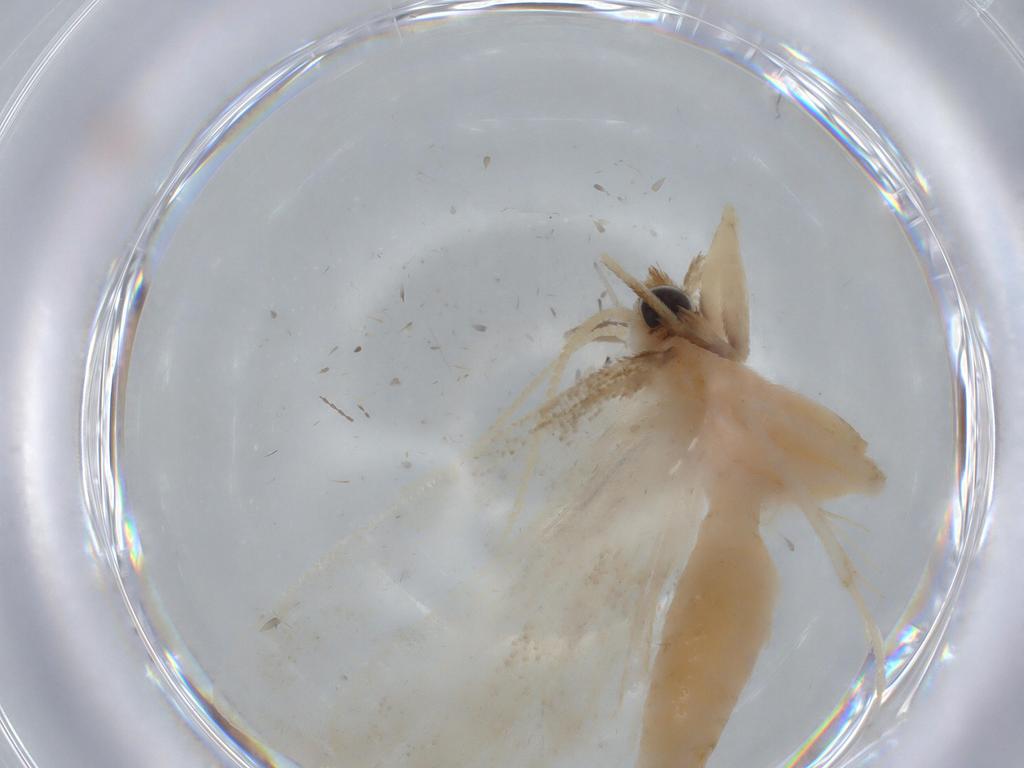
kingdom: Animalia
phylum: Arthropoda
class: Insecta
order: Lepidoptera
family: Crambidae
